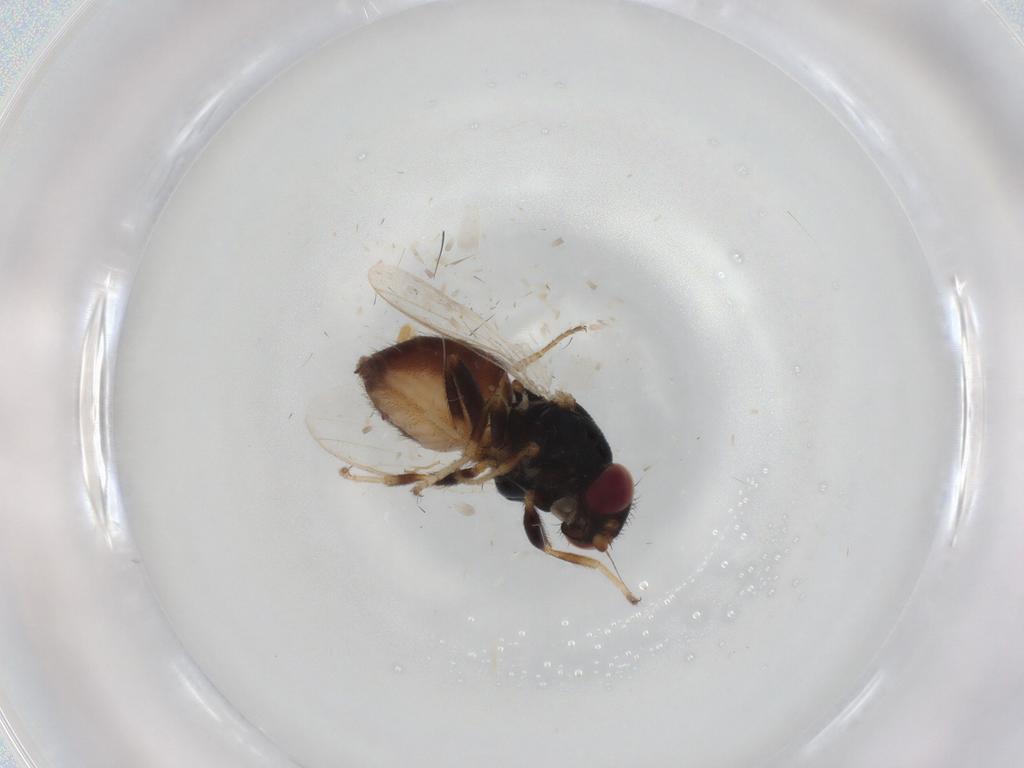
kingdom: Animalia
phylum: Arthropoda
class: Insecta
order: Diptera
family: Chloropidae
